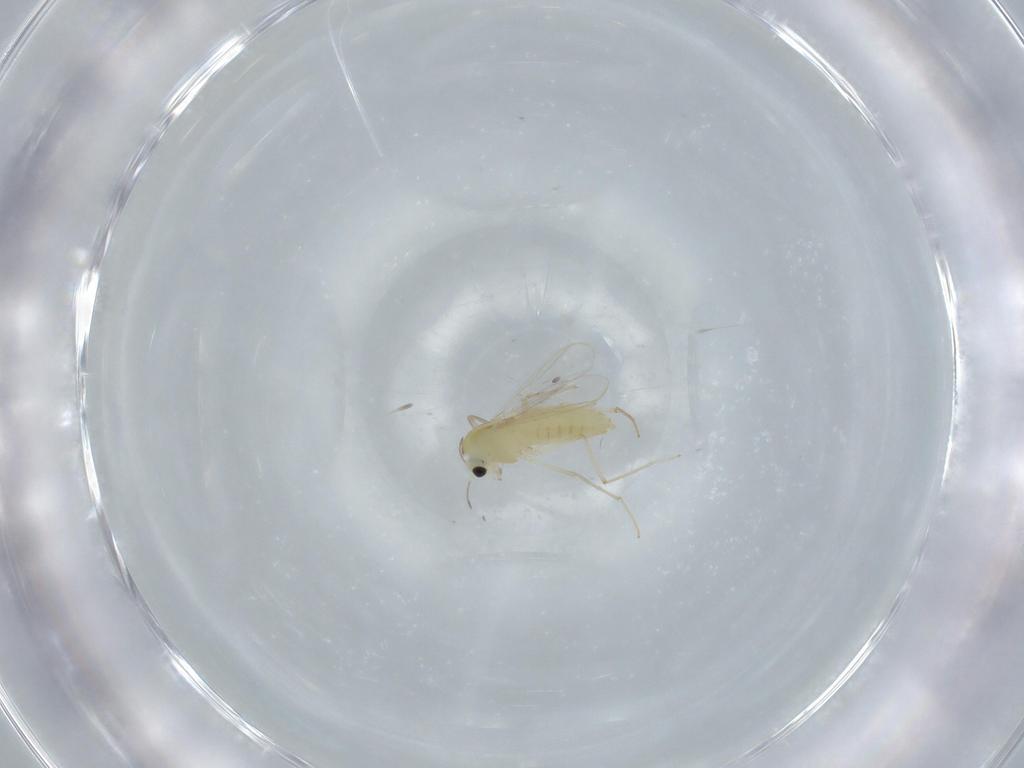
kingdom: Animalia
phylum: Arthropoda
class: Insecta
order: Diptera
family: Chironomidae
